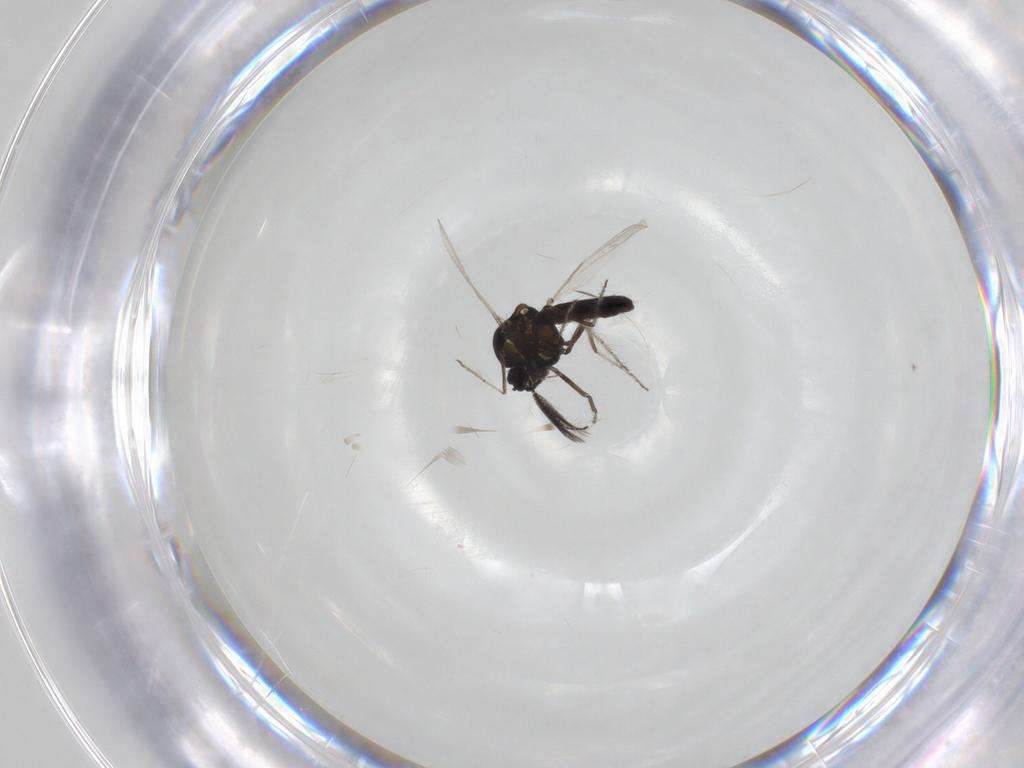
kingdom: Animalia
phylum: Arthropoda
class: Insecta
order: Diptera
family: Ceratopogonidae
